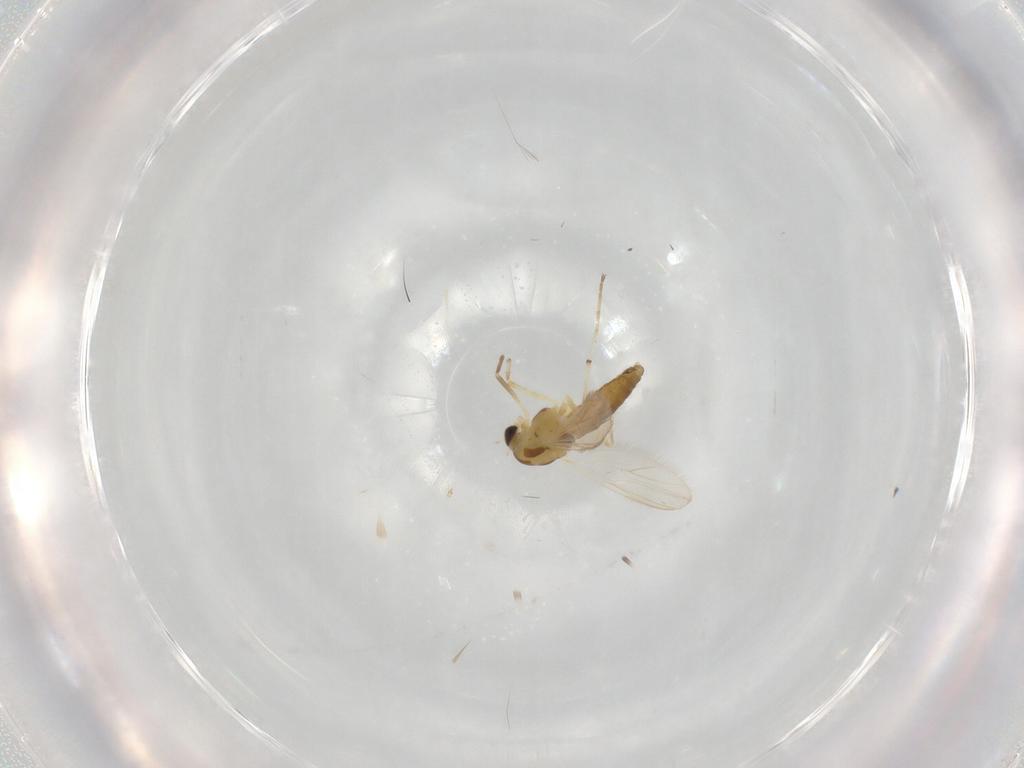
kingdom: Animalia
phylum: Arthropoda
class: Insecta
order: Diptera
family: Chironomidae
